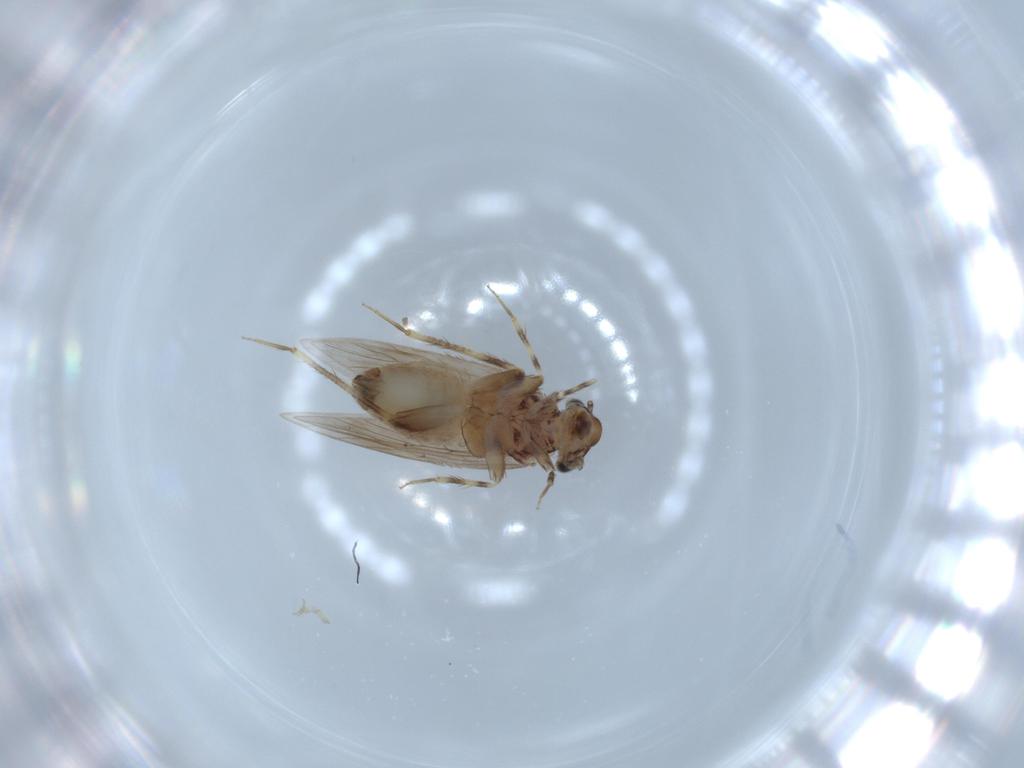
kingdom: Animalia
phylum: Arthropoda
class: Insecta
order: Psocodea
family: Lepidopsocidae
